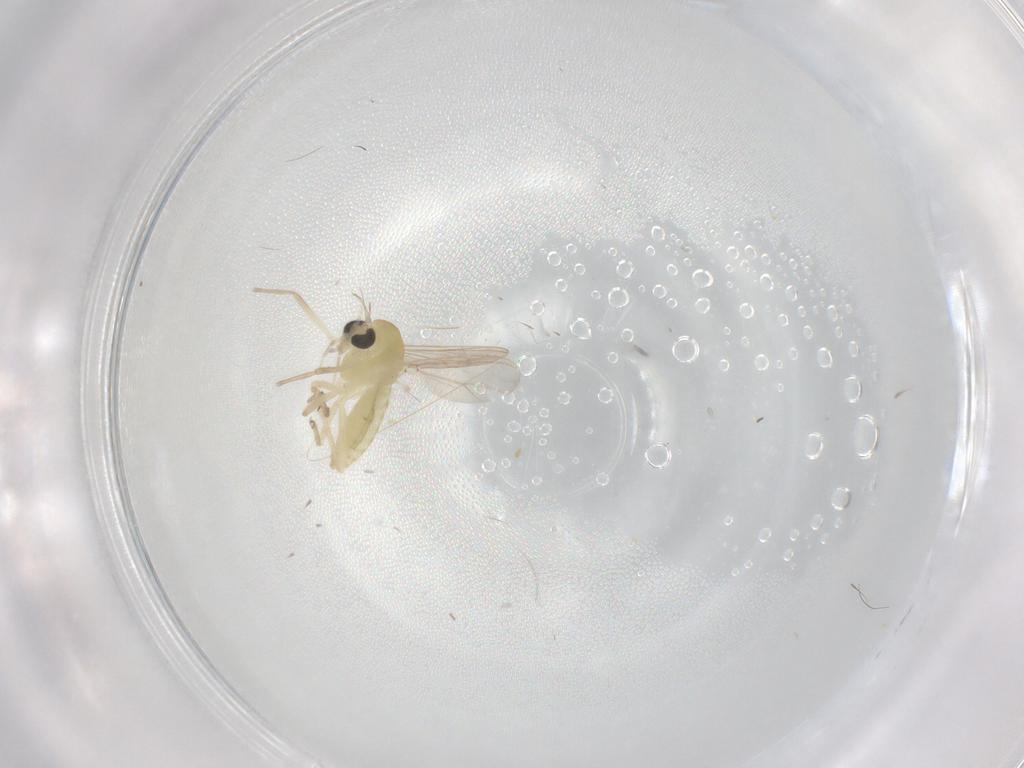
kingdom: Animalia
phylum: Arthropoda
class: Insecta
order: Diptera
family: Chironomidae
